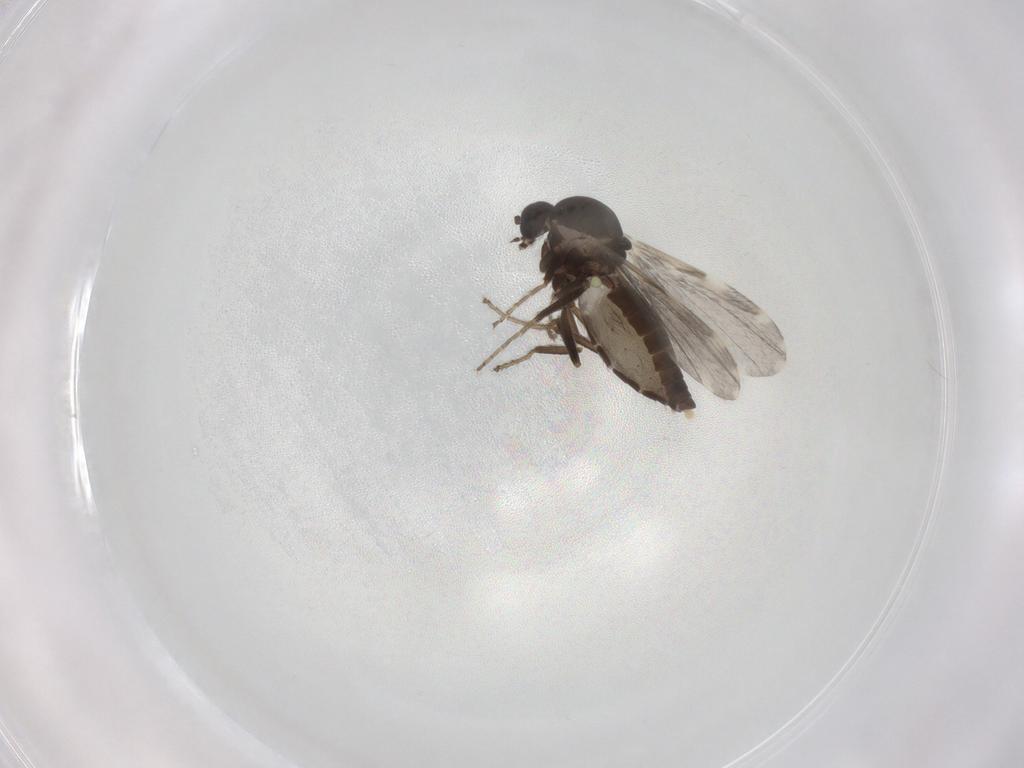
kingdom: Animalia
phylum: Arthropoda
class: Insecta
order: Diptera
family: Ceratopogonidae
